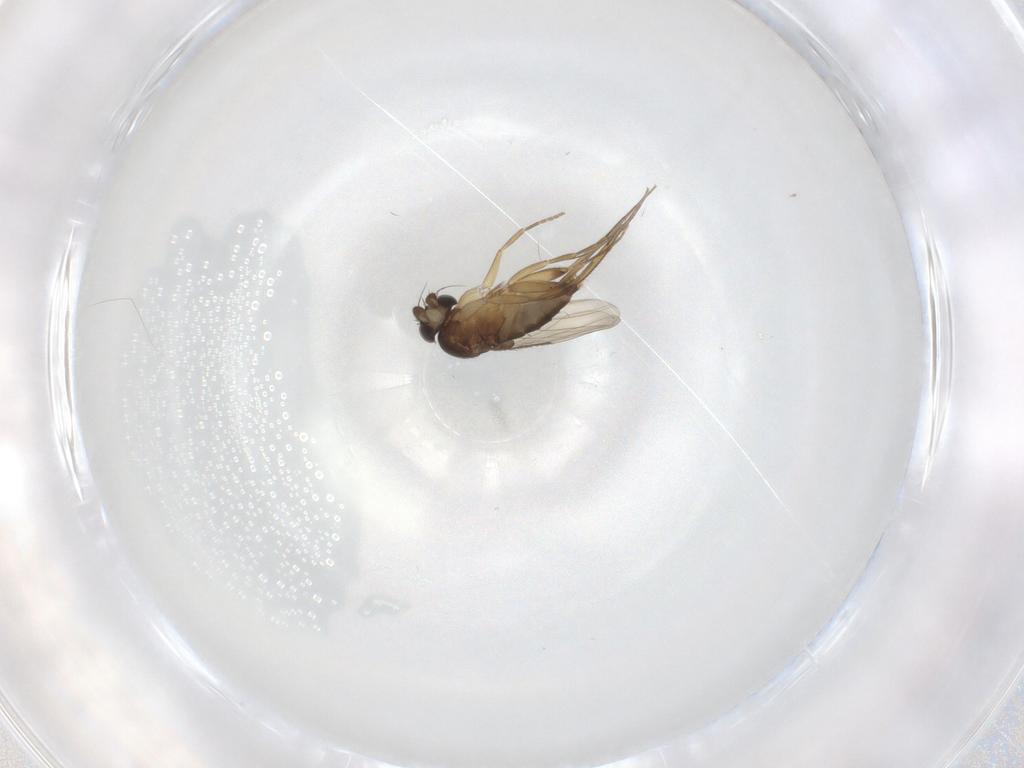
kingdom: Animalia
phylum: Arthropoda
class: Insecta
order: Diptera
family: Phoridae
